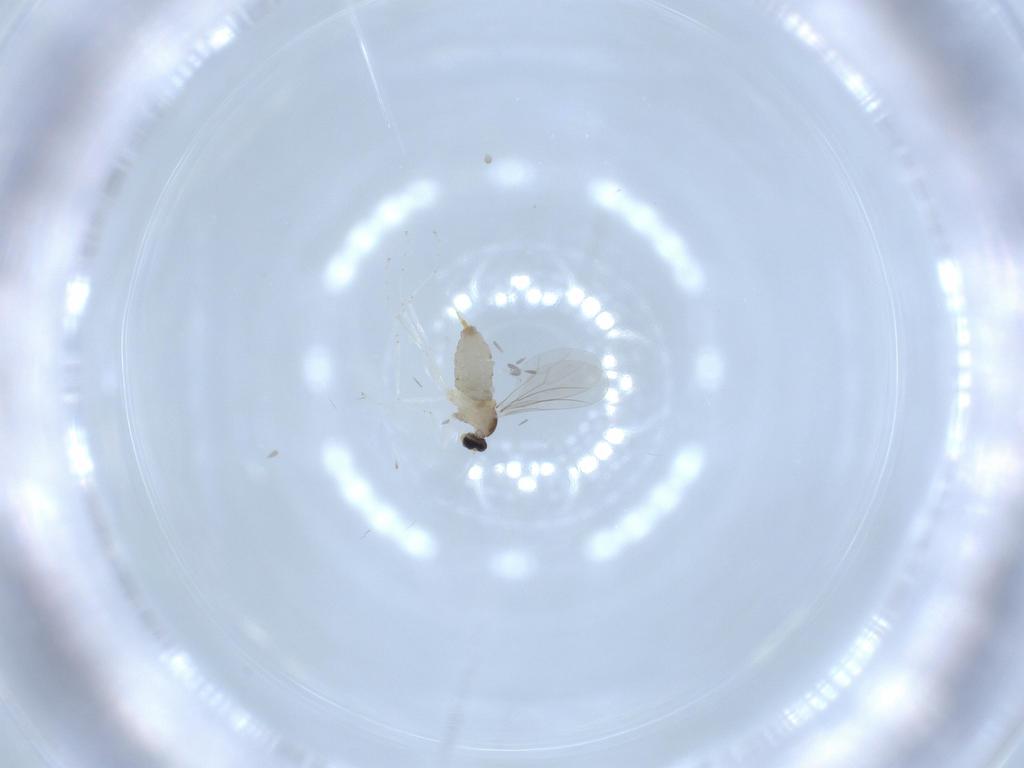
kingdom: Animalia
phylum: Arthropoda
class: Insecta
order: Diptera
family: Cecidomyiidae
